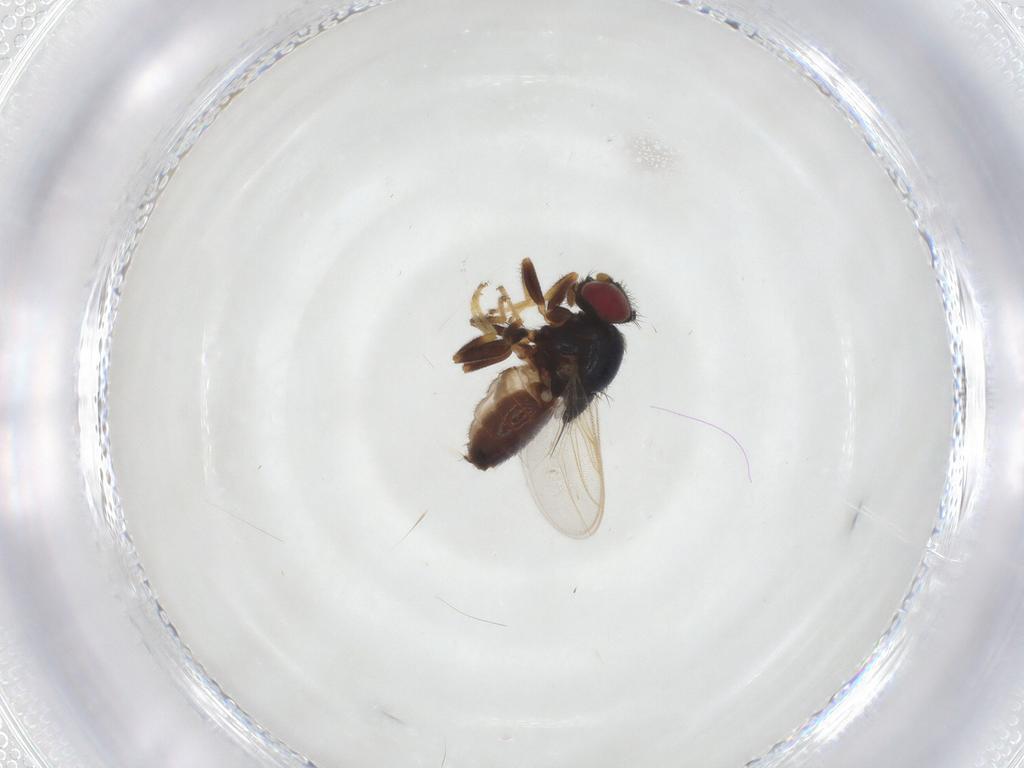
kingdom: Animalia
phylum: Arthropoda
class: Insecta
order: Diptera
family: Chloropidae
